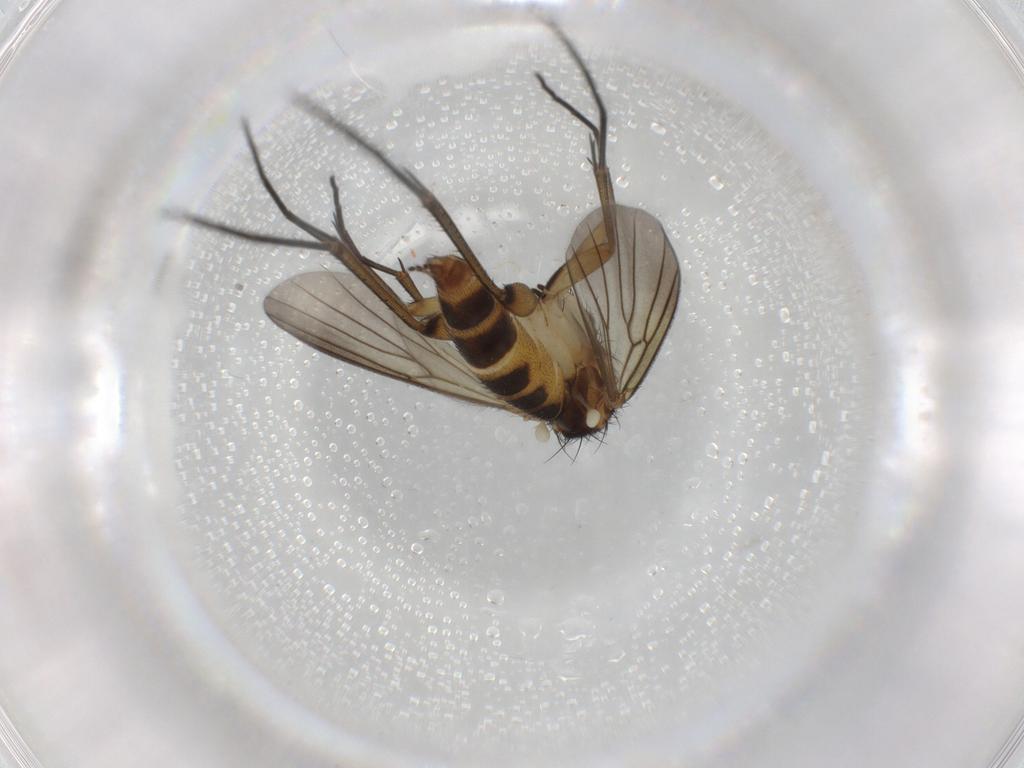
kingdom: Animalia
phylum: Arthropoda
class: Insecta
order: Diptera
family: Mycetophilidae
